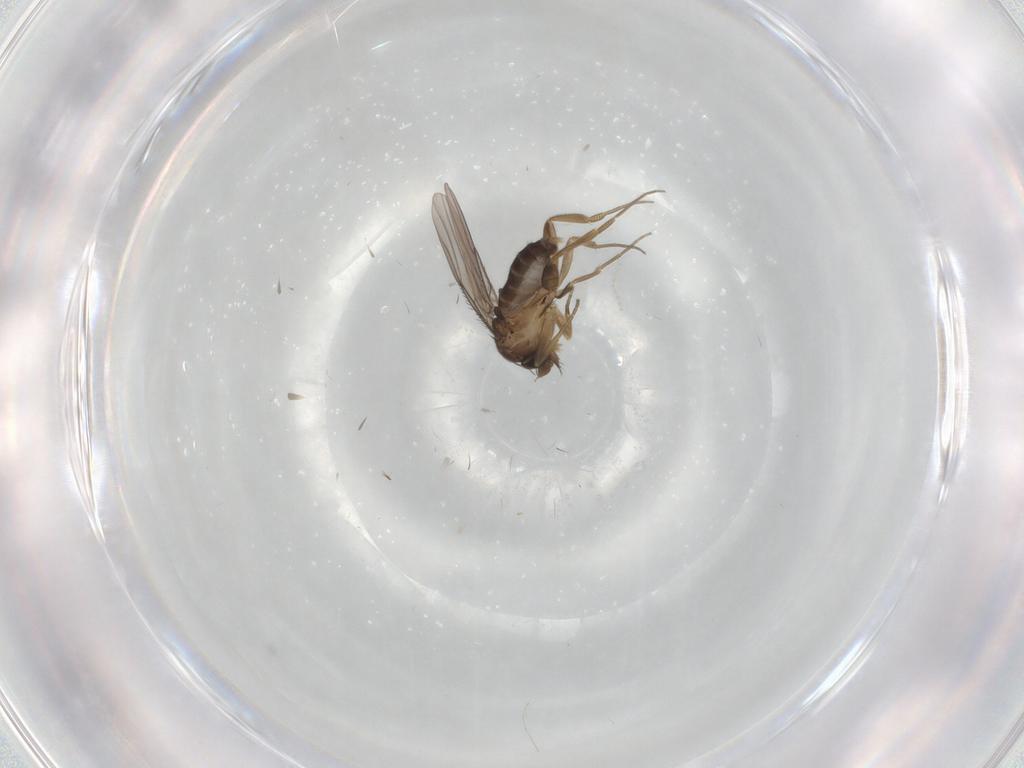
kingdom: Animalia
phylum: Arthropoda
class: Insecta
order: Diptera
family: Phoridae
